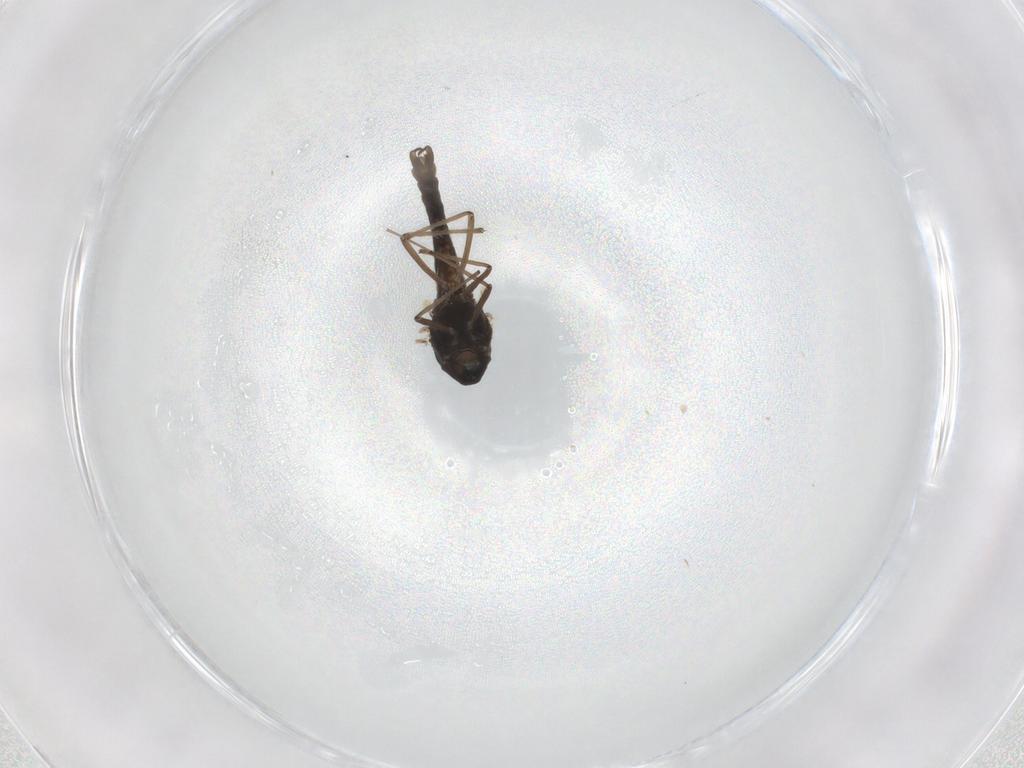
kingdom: Animalia
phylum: Arthropoda
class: Insecta
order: Diptera
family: Chironomidae
